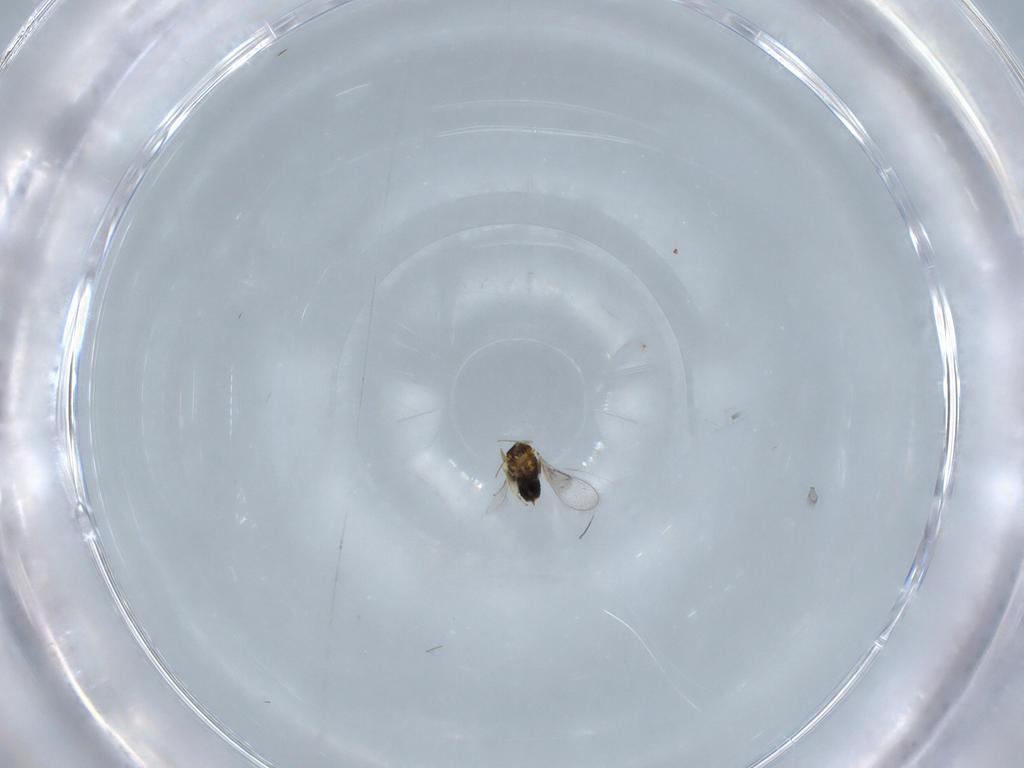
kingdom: Animalia
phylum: Arthropoda
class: Insecta
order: Hymenoptera
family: Aphelinidae
